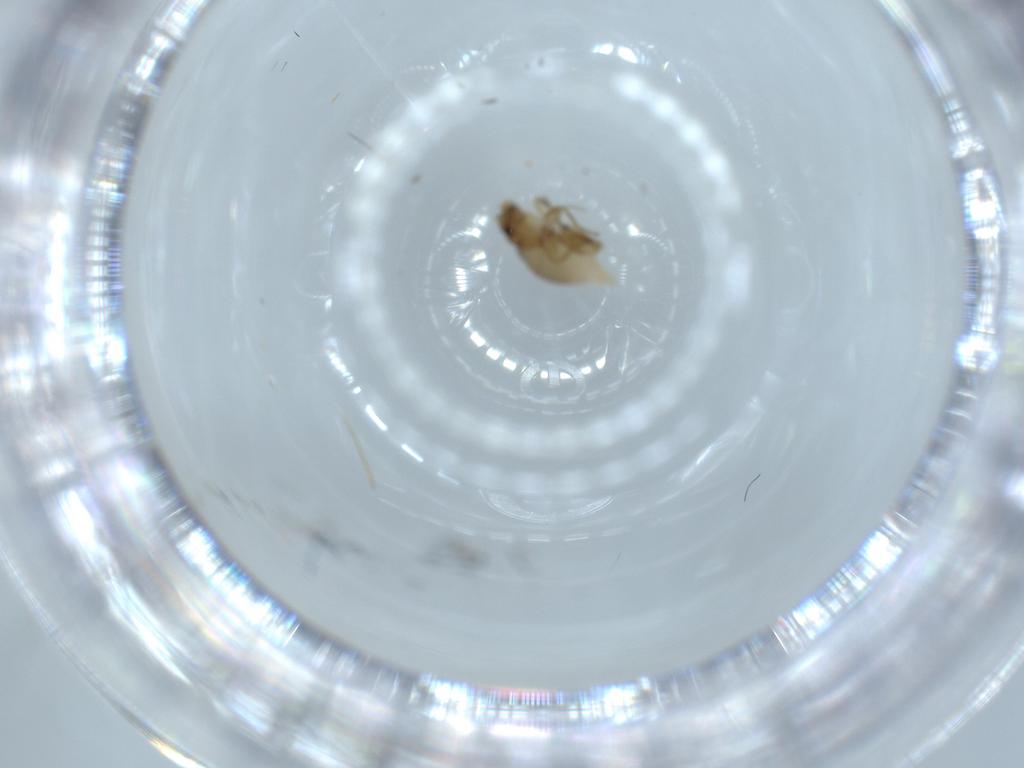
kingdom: Animalia
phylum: Arthropoda
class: Insecta
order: Diptera
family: Phoridae
